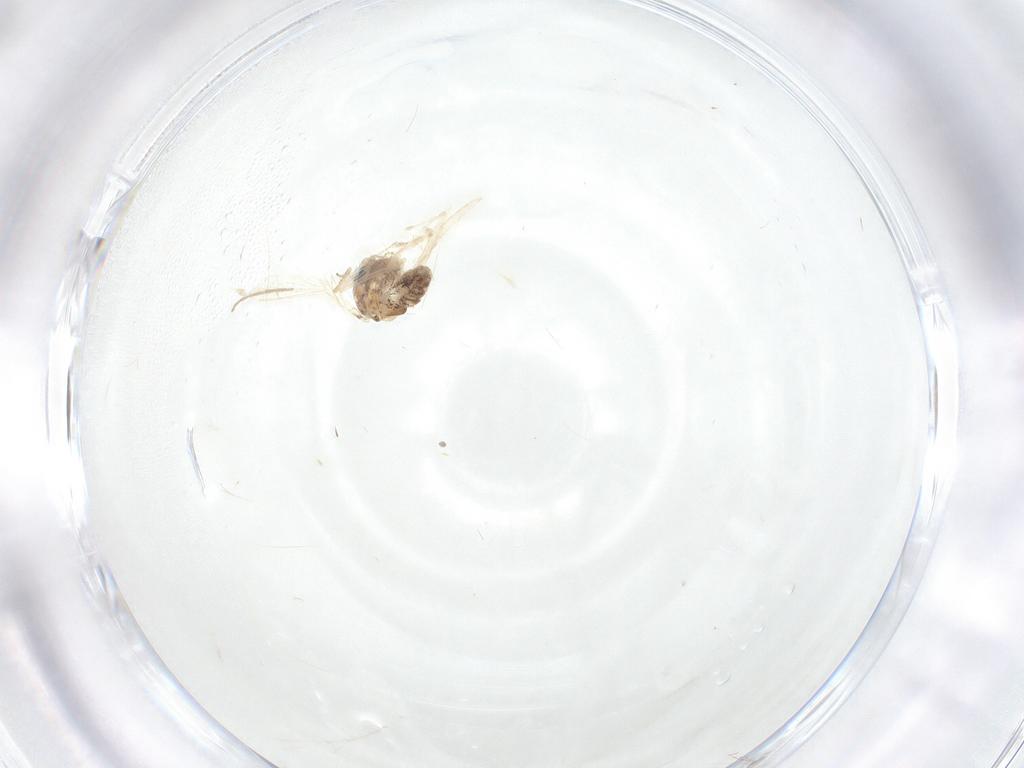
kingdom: Animalia
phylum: Arthropoda
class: Insecta
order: Diptera
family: Chironomidae
